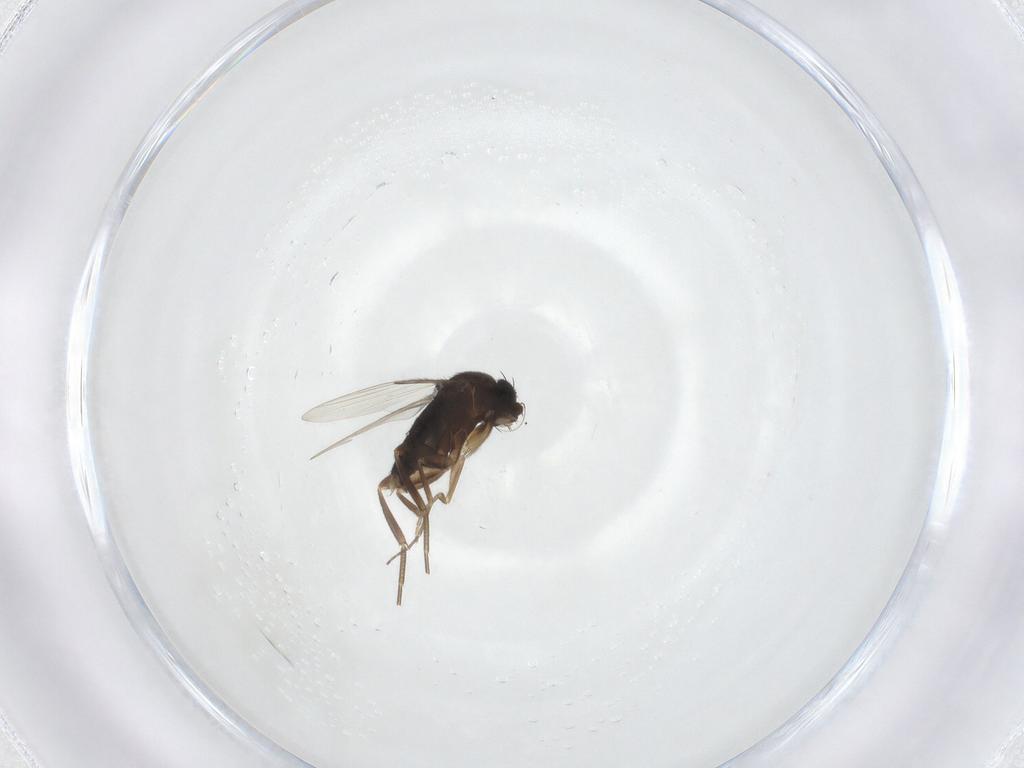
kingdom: Animalia
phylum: Arthropoda
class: Insecta
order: Diptera
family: Phoridae
